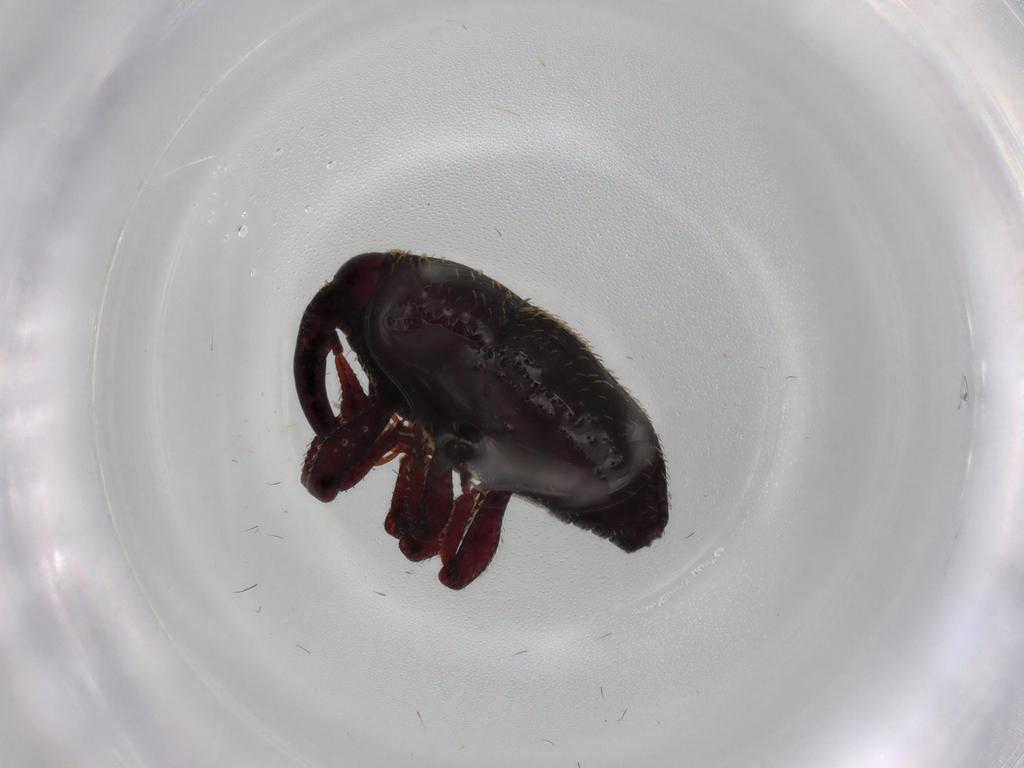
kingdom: Animalia
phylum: Arthropoda
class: Insecta
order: Coleoptera
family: Curculionidae
